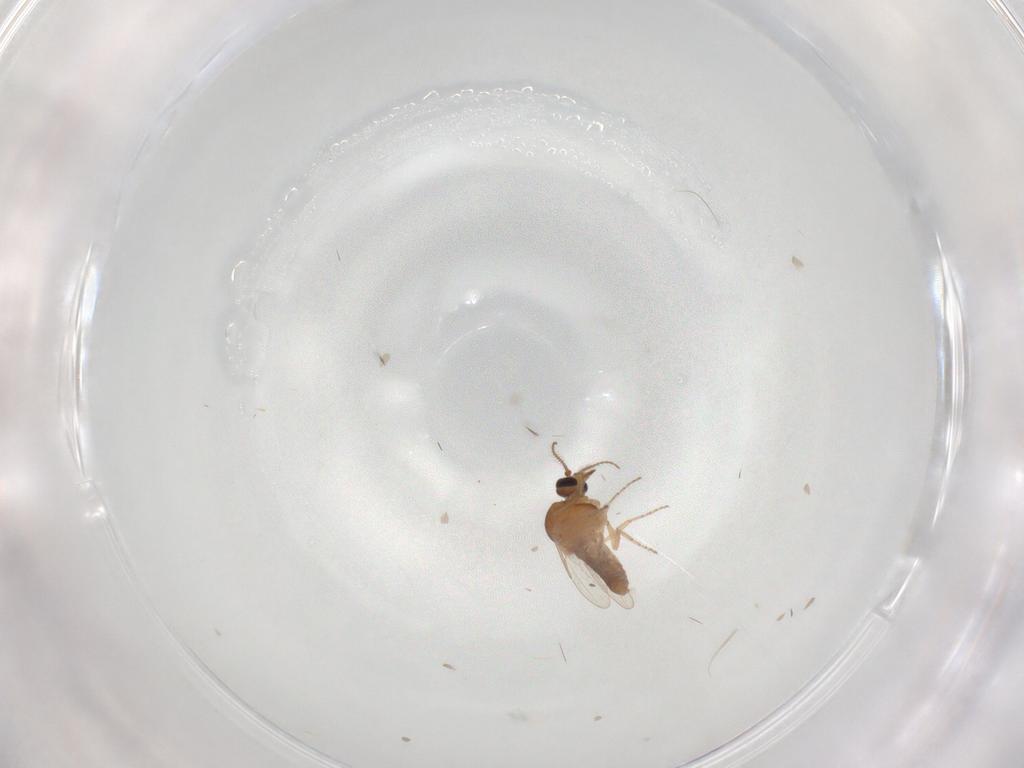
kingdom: Animalia
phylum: Arthropoda
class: Insecta
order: Diptera
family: Ceratopogonidae
